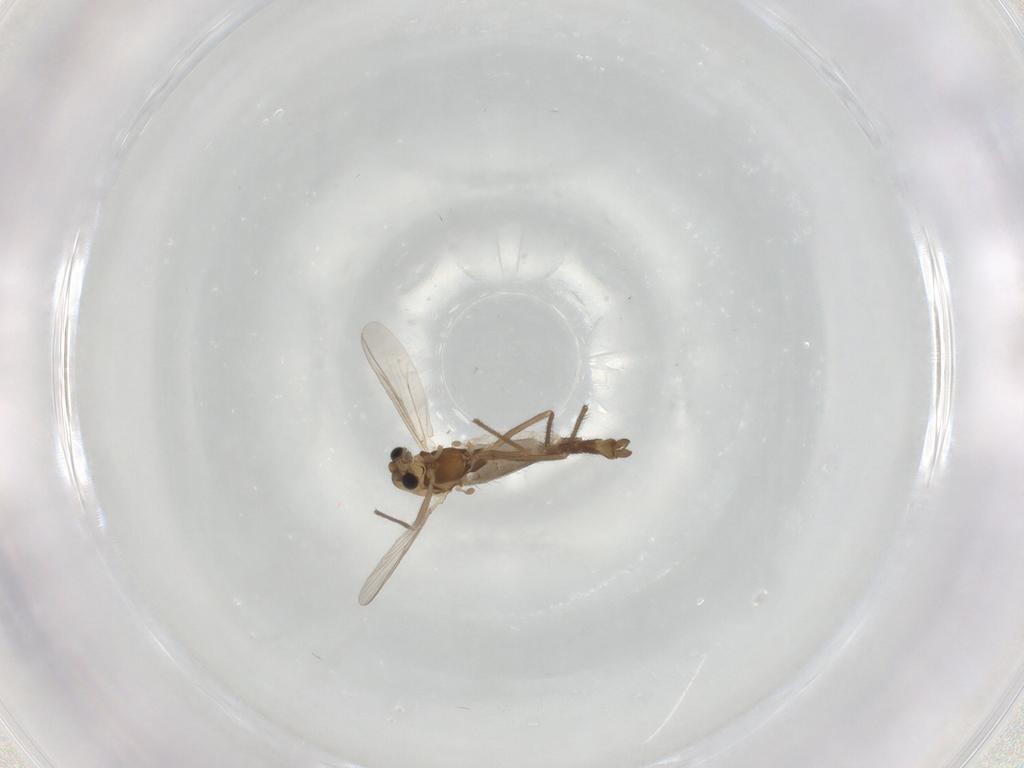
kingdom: Animalia
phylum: Arthropoda
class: Insecta
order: Diptera
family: Chironomidae
